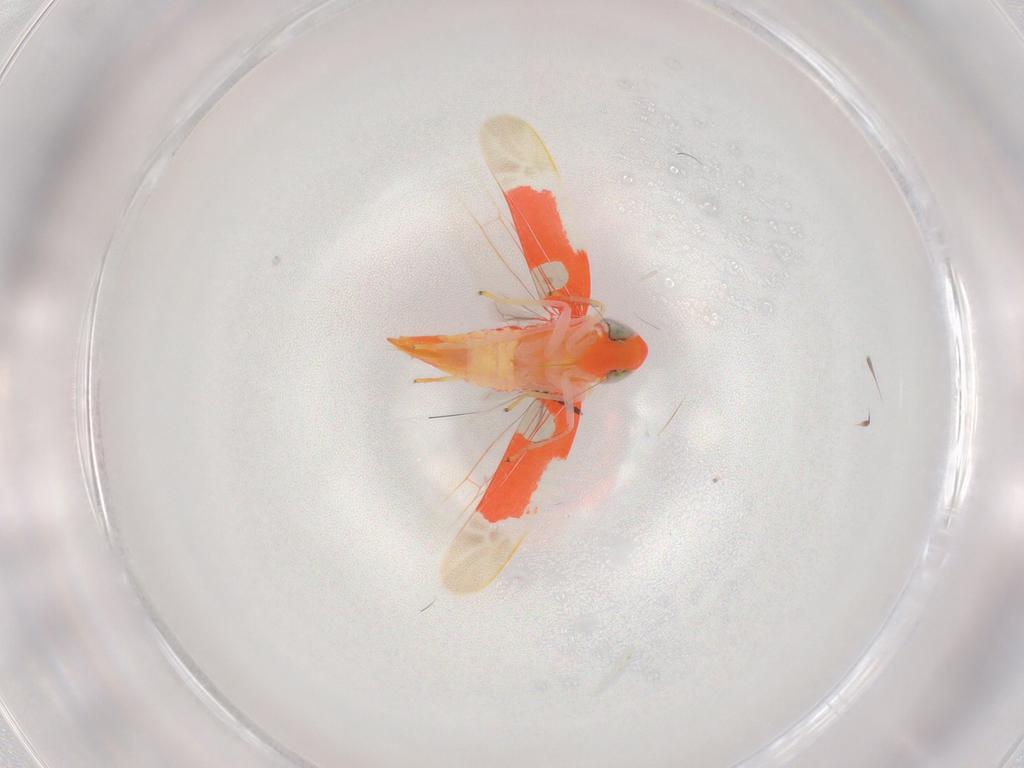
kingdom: Animalia
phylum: Arthropoda
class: Insecta
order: Hemiptera
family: Cicadellidae
